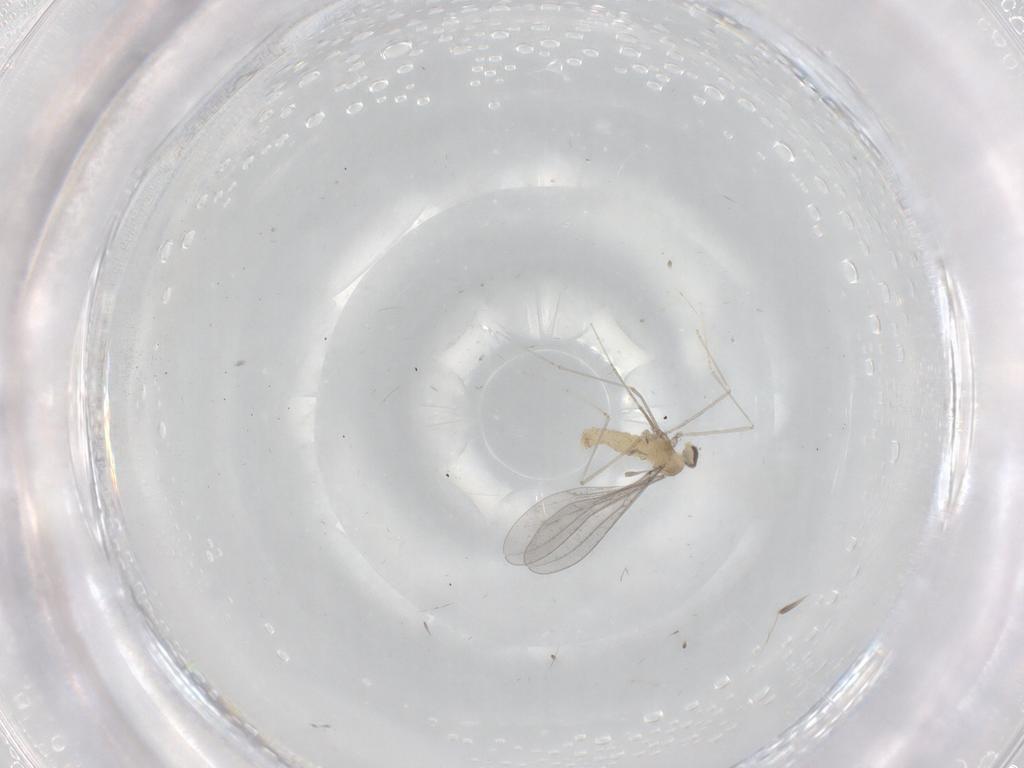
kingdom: Animalia
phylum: Arthropoda
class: Insecta
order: Diptera
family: Cecidomyiidae
